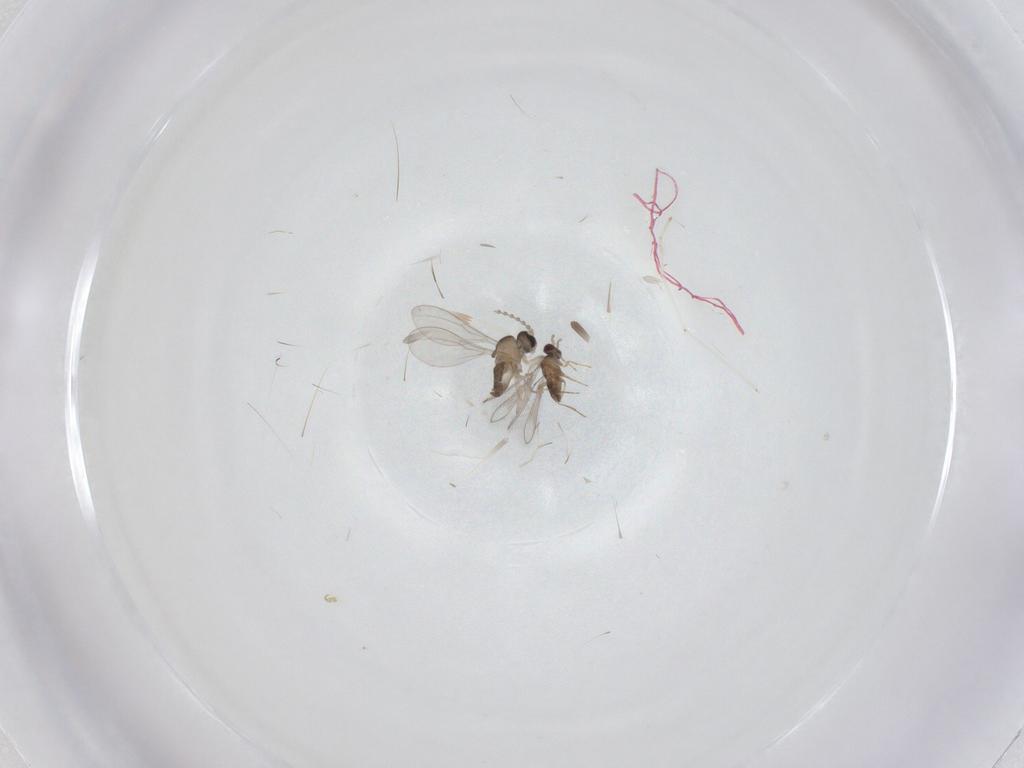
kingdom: Animalia
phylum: Arthropoda
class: Insecta
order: Diptera
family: Cecidomyiidae
